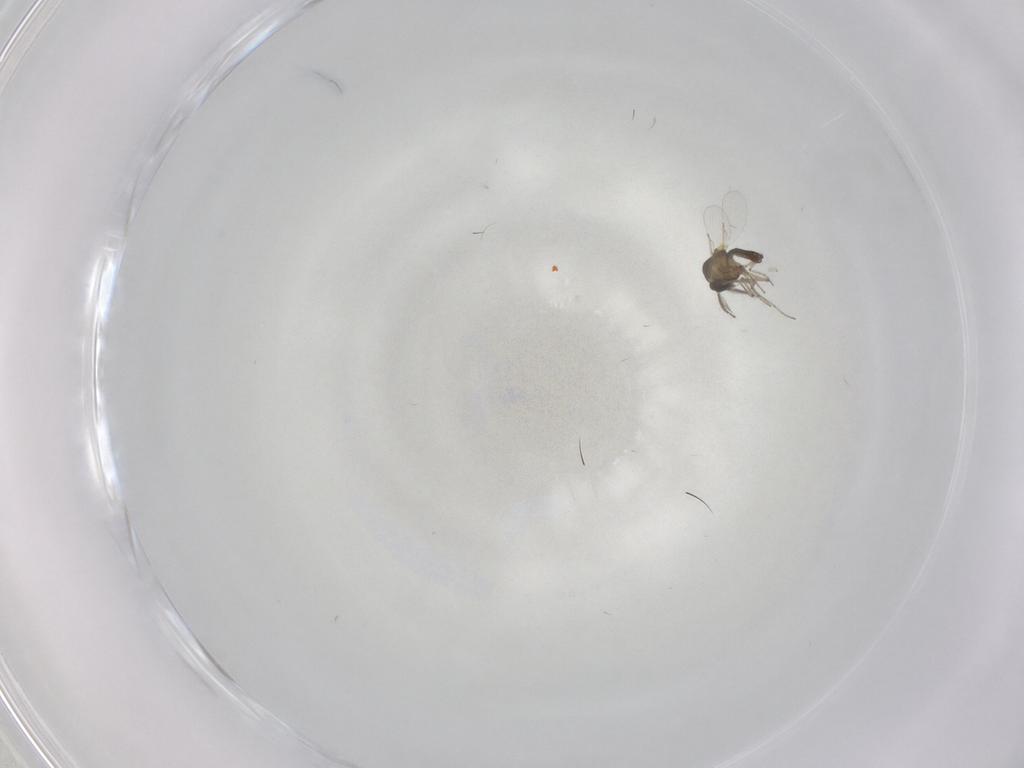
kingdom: Animalia
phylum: Arthropoda
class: Insecta
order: Diptera
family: Ceratopogonidae
